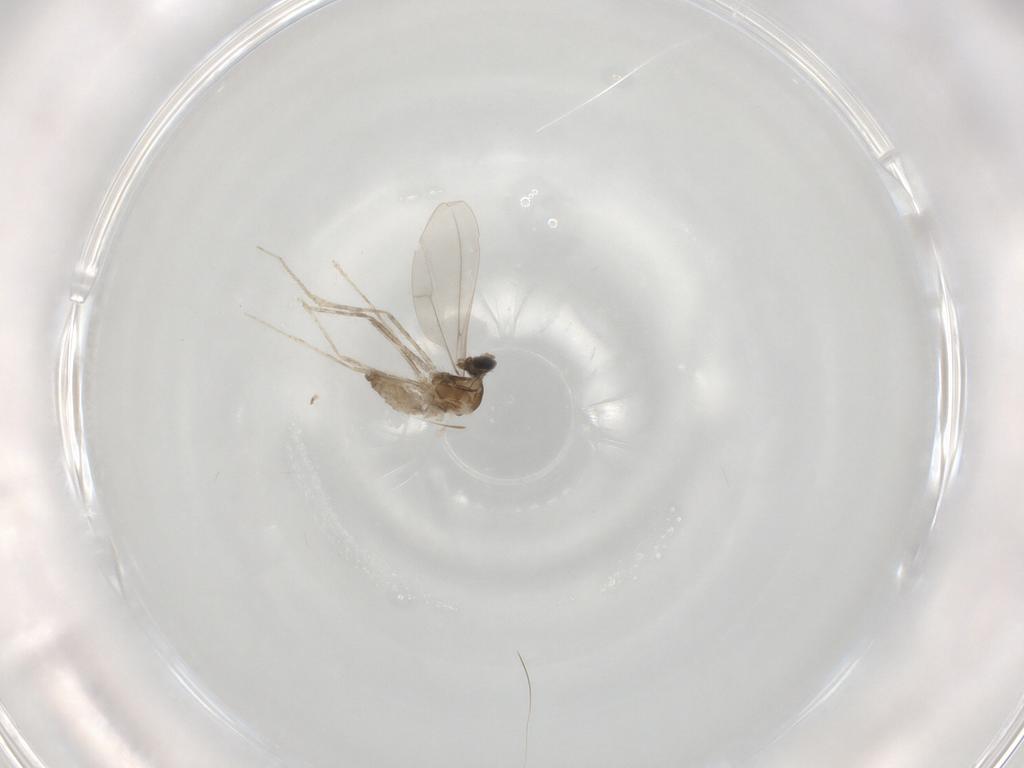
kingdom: Animalia
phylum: Arthropoda
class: Insecta
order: Diptera
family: Cecidomyiidae
